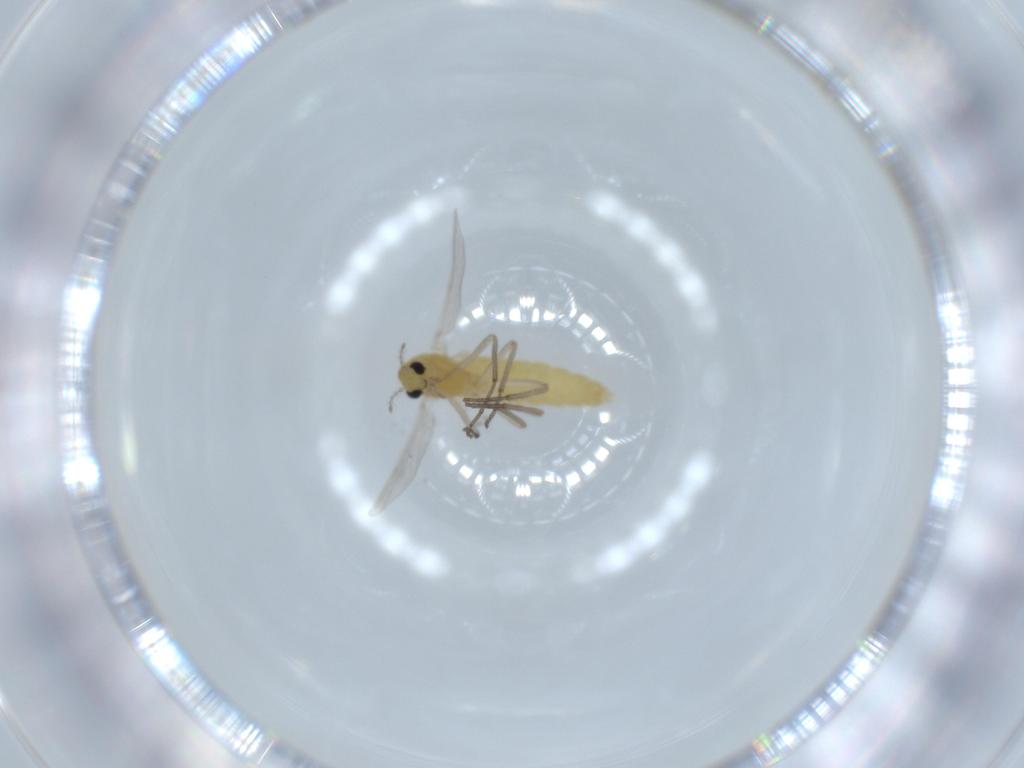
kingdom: Animalia
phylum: Arthropoda
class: Insecta
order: Diptera
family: Chironomidae
